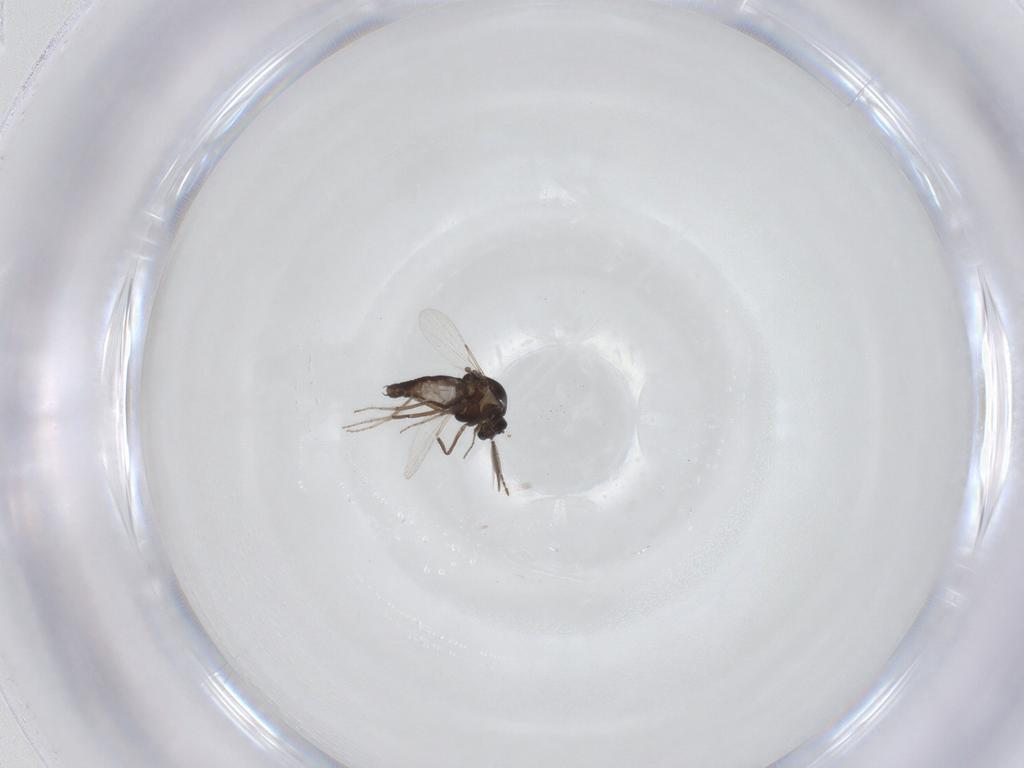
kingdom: Animalia
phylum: Arthropoda
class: Insecta
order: Diptera
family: Ceratopogonidae
